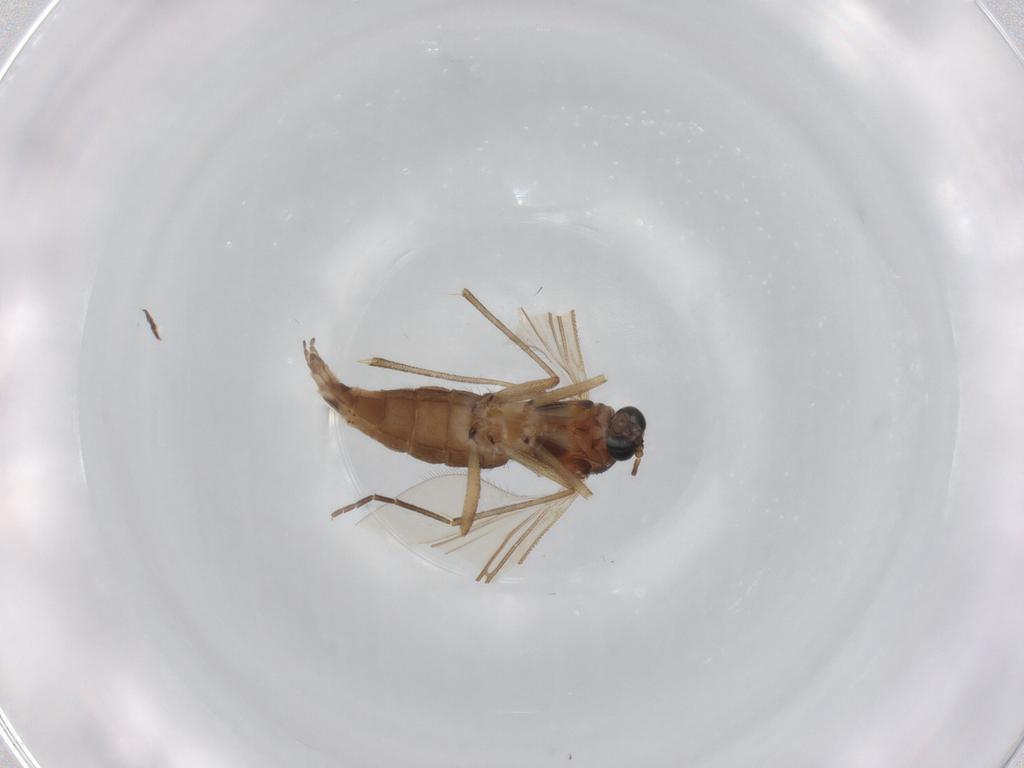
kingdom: Animalia
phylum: Arthropoda
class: Insecta
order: Diptera
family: Sciaridae
